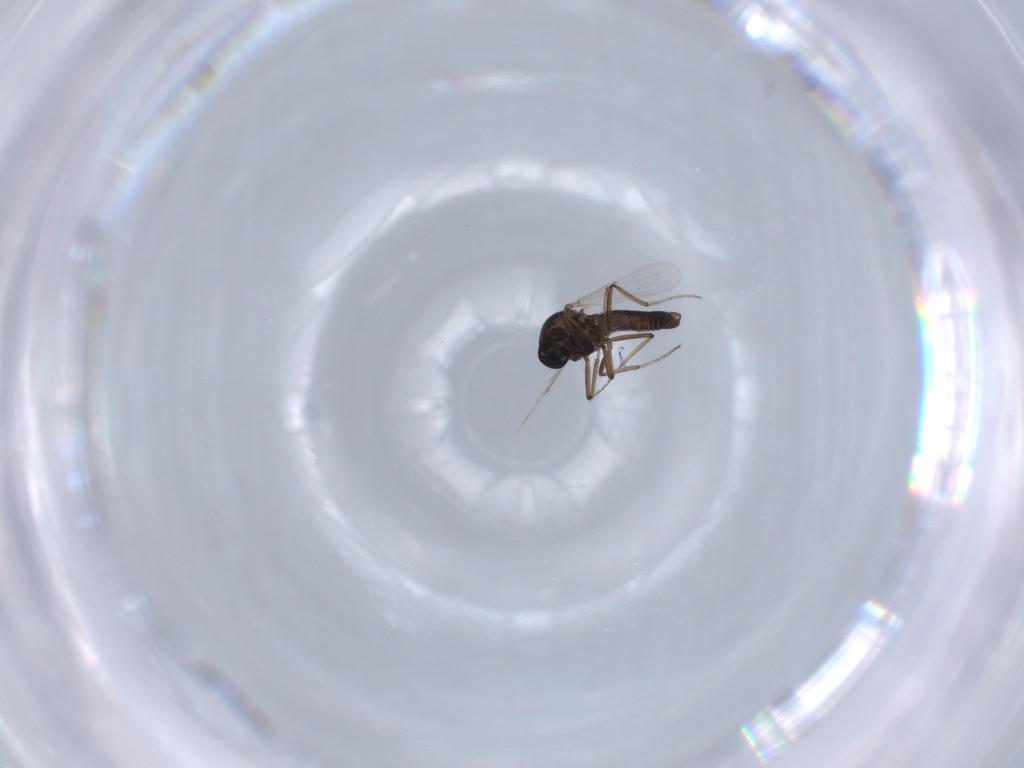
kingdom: Animalia
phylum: Arthropoda
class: Insecta
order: Diptera
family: Ceratopogonidae
